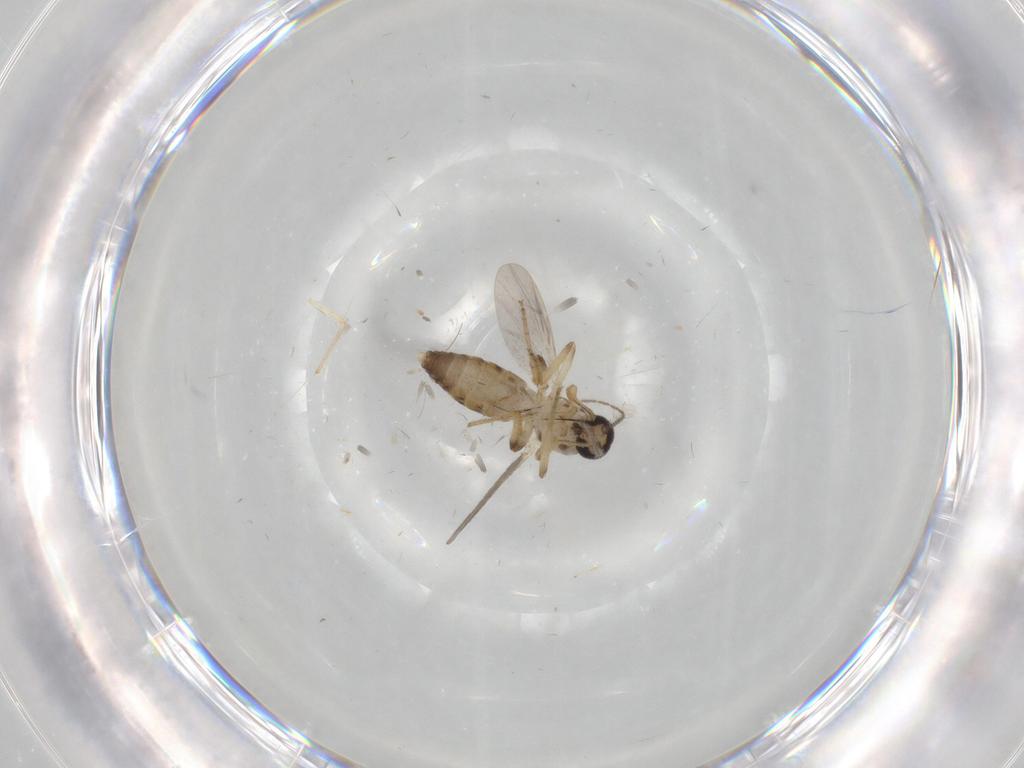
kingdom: Animalia
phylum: Arthropoda
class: Insecta
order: Diptera
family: Ceratopogonidae
